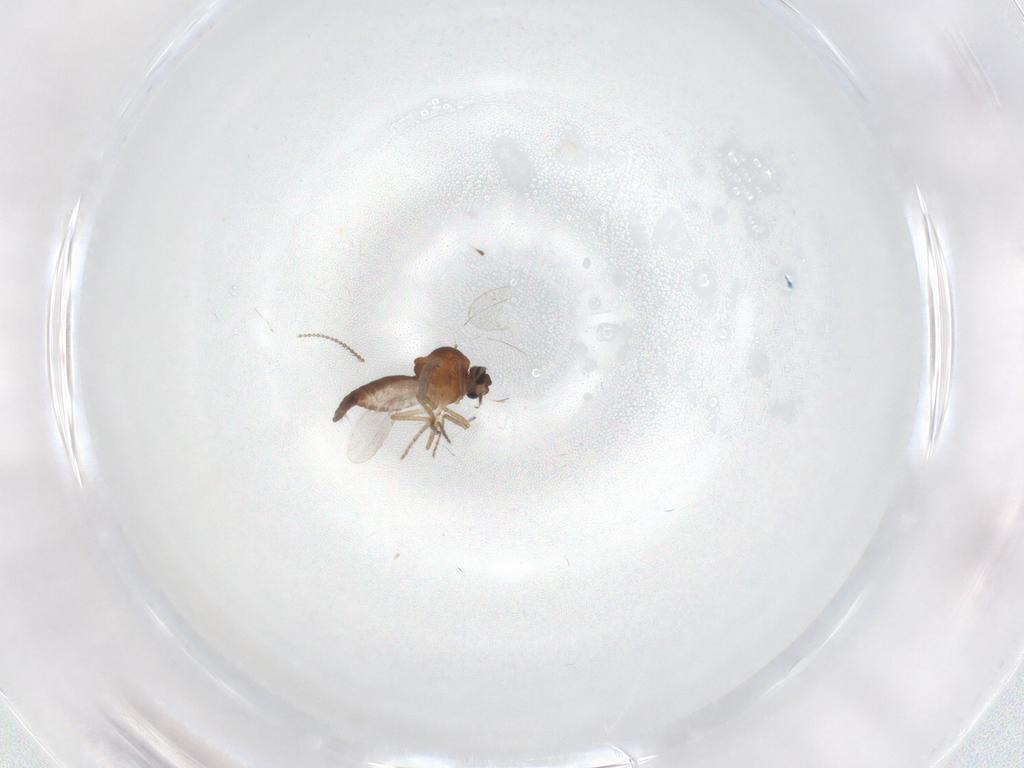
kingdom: Animalia
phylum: Arthropoda
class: Insecta
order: Diptera
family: Ceratopogonidae
